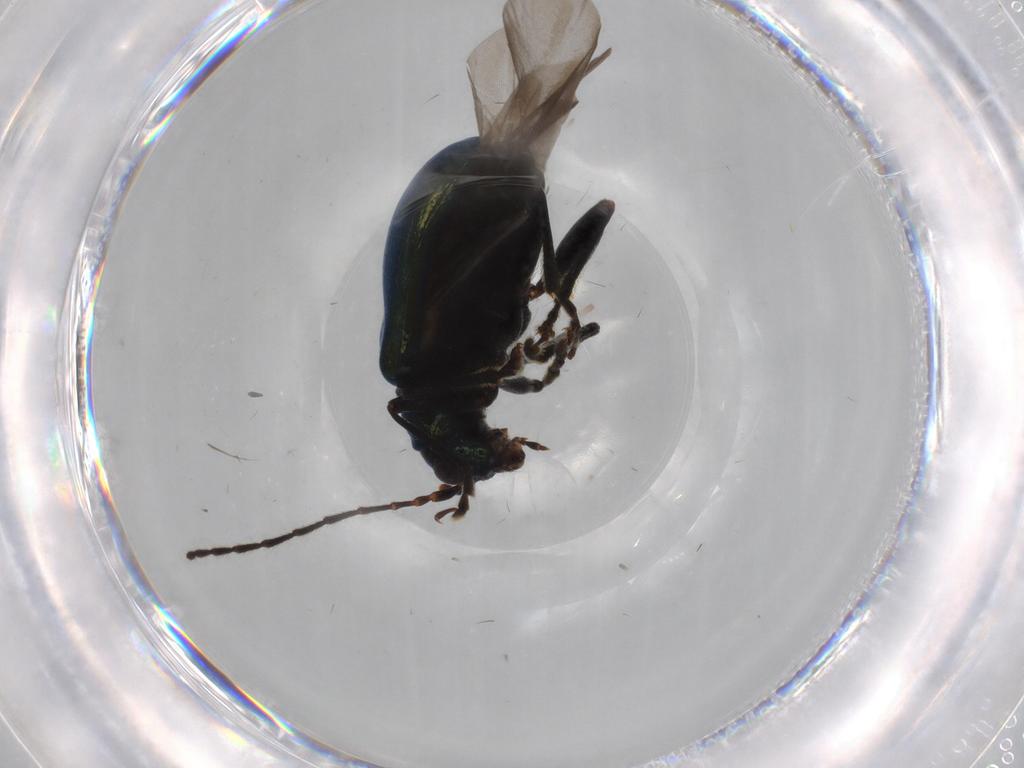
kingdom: Animalia
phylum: Arthropoda
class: Insecta
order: Coleoptera
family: Chrysomelidae
